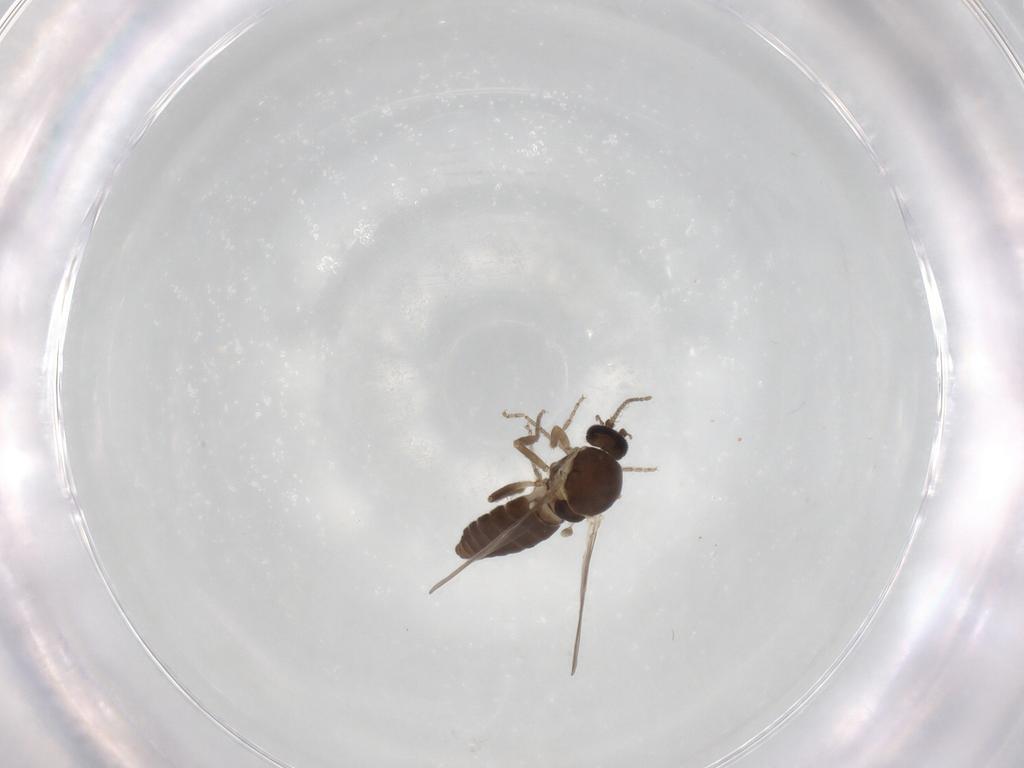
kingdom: Animalia
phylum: Arthropoda
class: Insecta
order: Diptera
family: Ceratopogonidae
